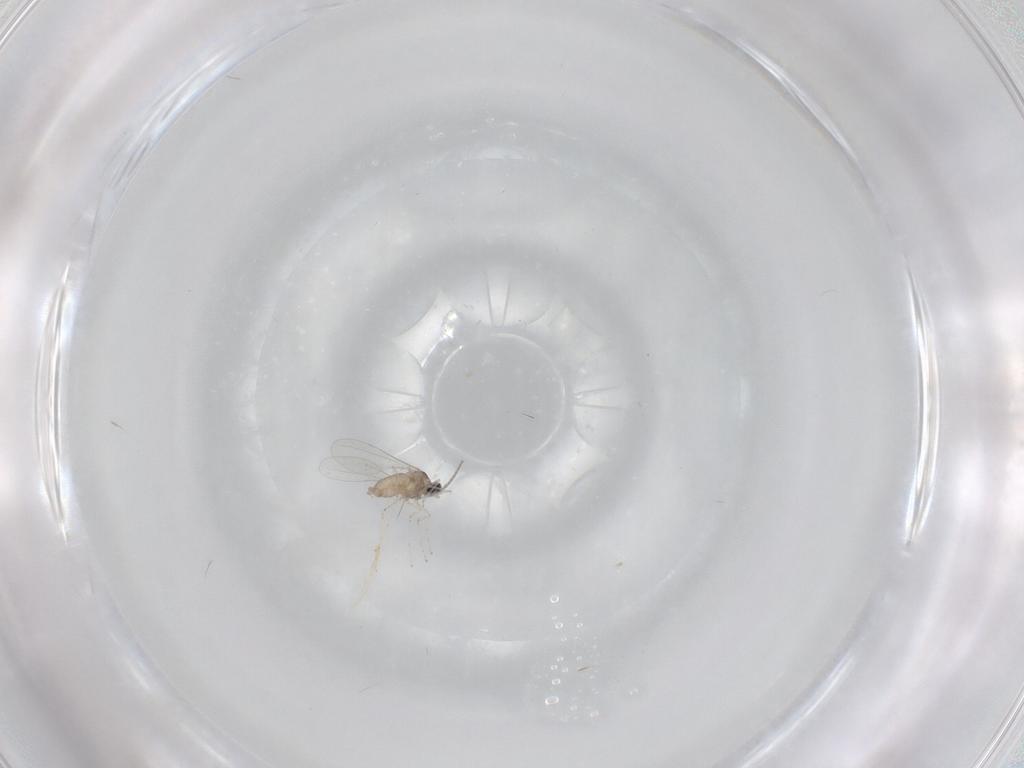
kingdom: Animalia
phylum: Arthropoda
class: Insecta
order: Diptera
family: Cecidomyiidae
